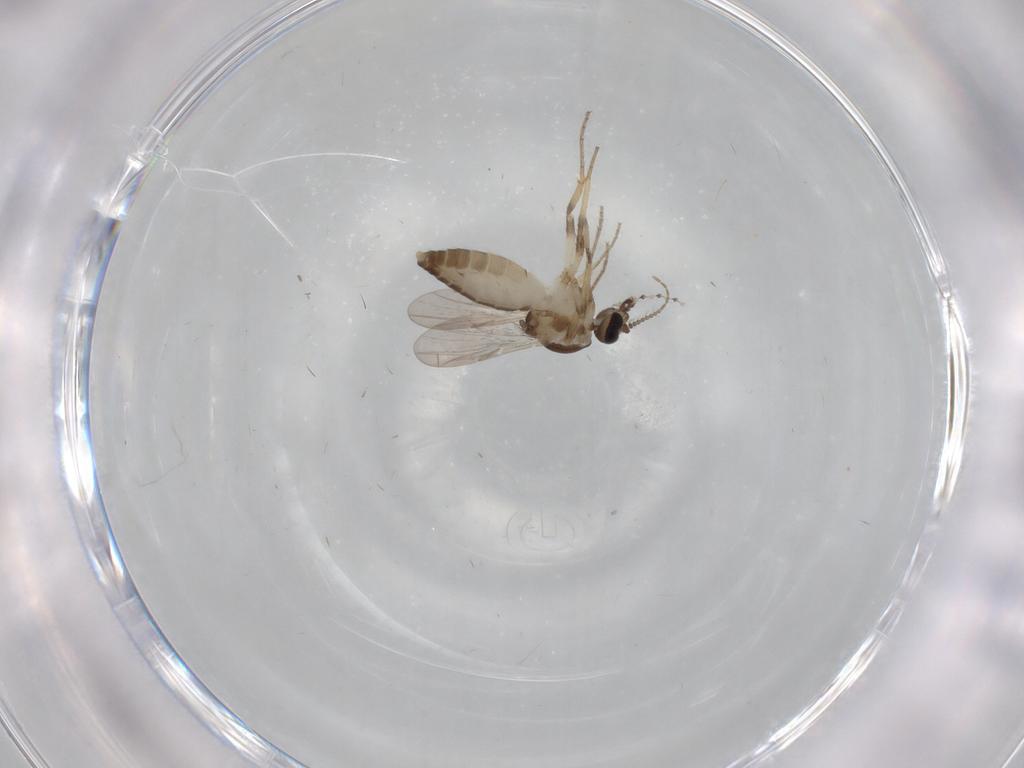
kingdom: Animalia
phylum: Arthropoda
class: Insecta
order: Diptera
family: Ceratopogonidae
